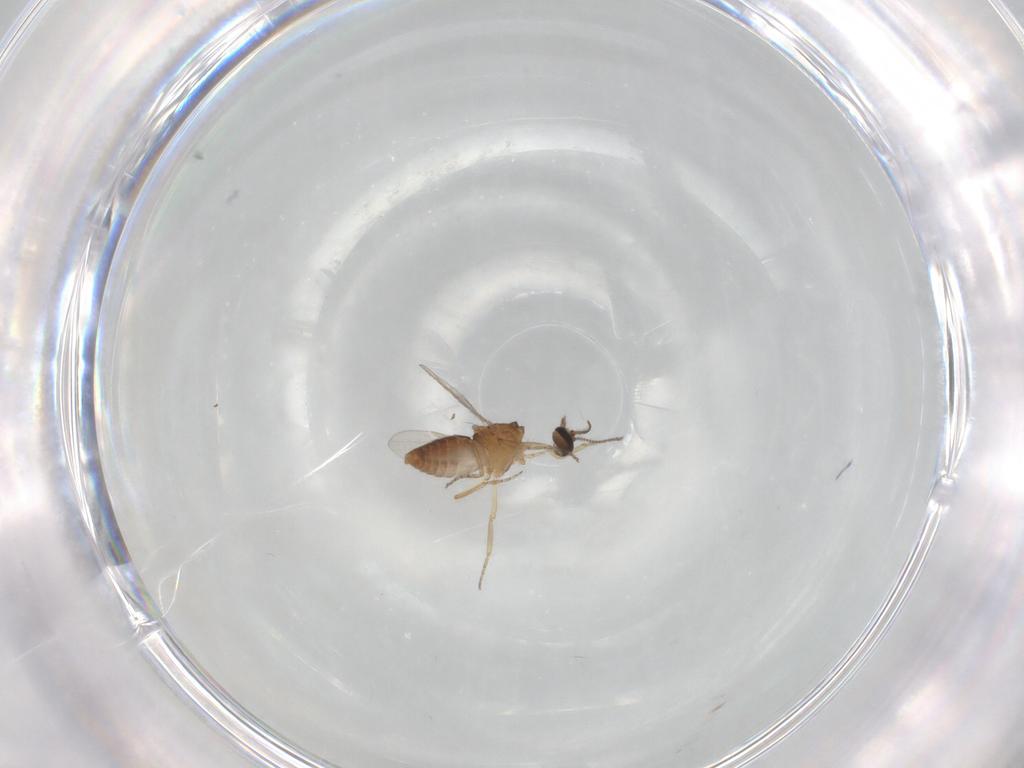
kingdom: Animalia
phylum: Arthropoda
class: Insecta
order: Diptera
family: Ceratopogonidae
